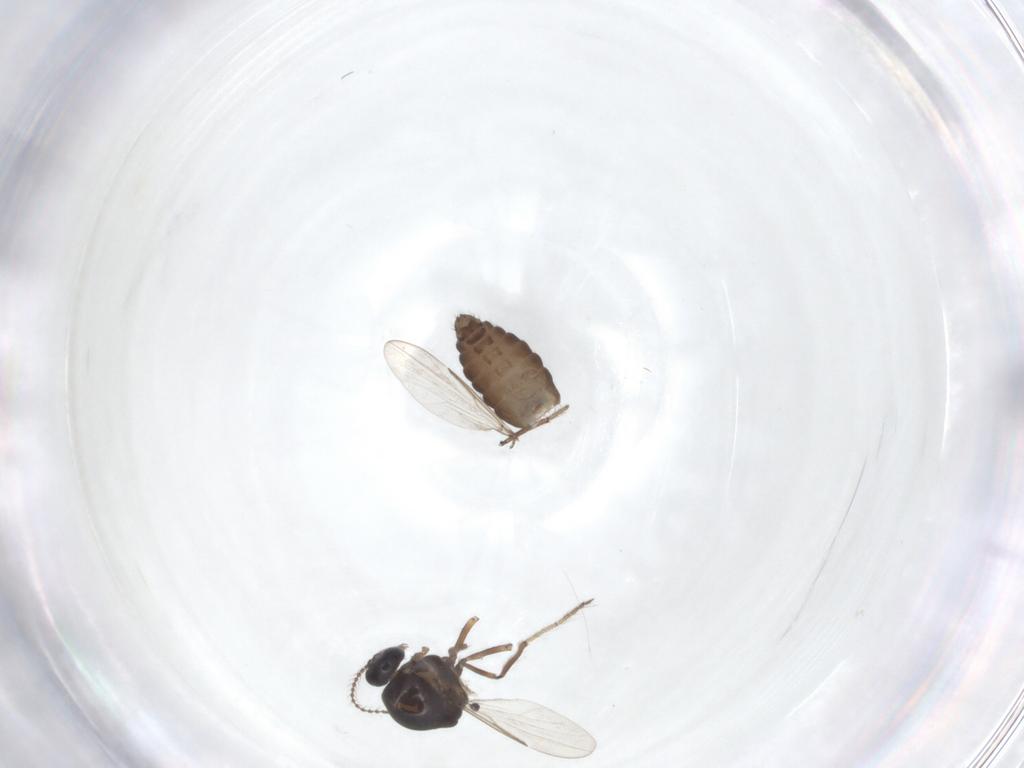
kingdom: Animalia
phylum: Arthropoda
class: Insecta
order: Diptera
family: Ceratopogonidae
